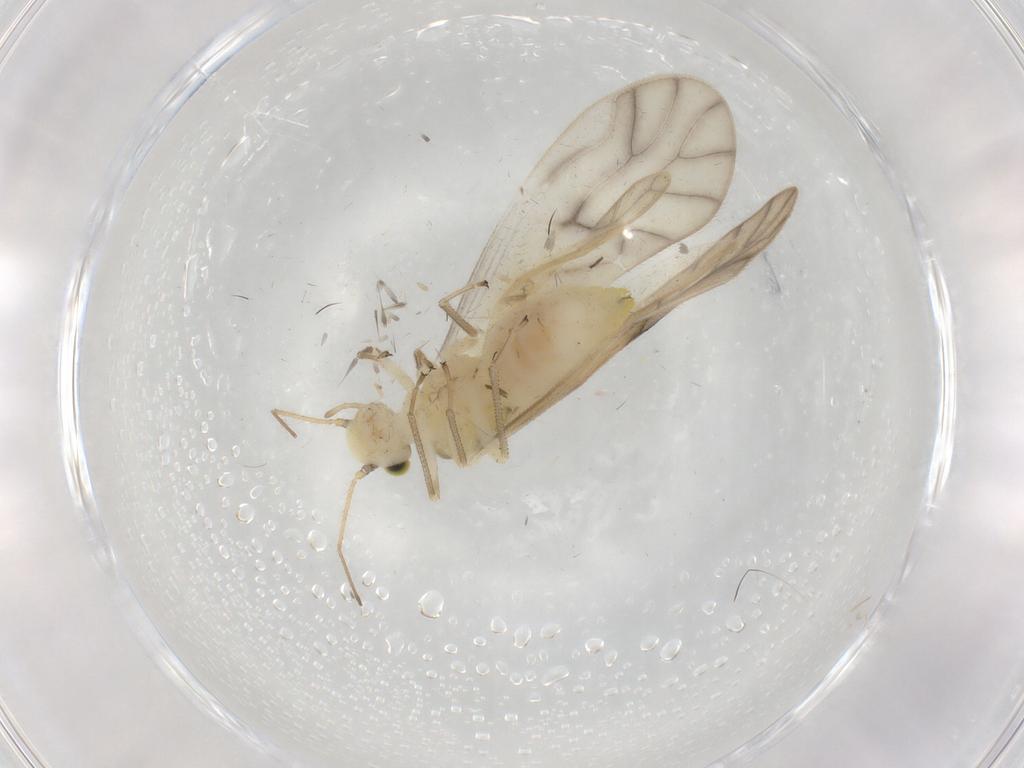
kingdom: Animalia
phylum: Arthropoda
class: Insecta
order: Psocodea
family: Caeciliusidae
